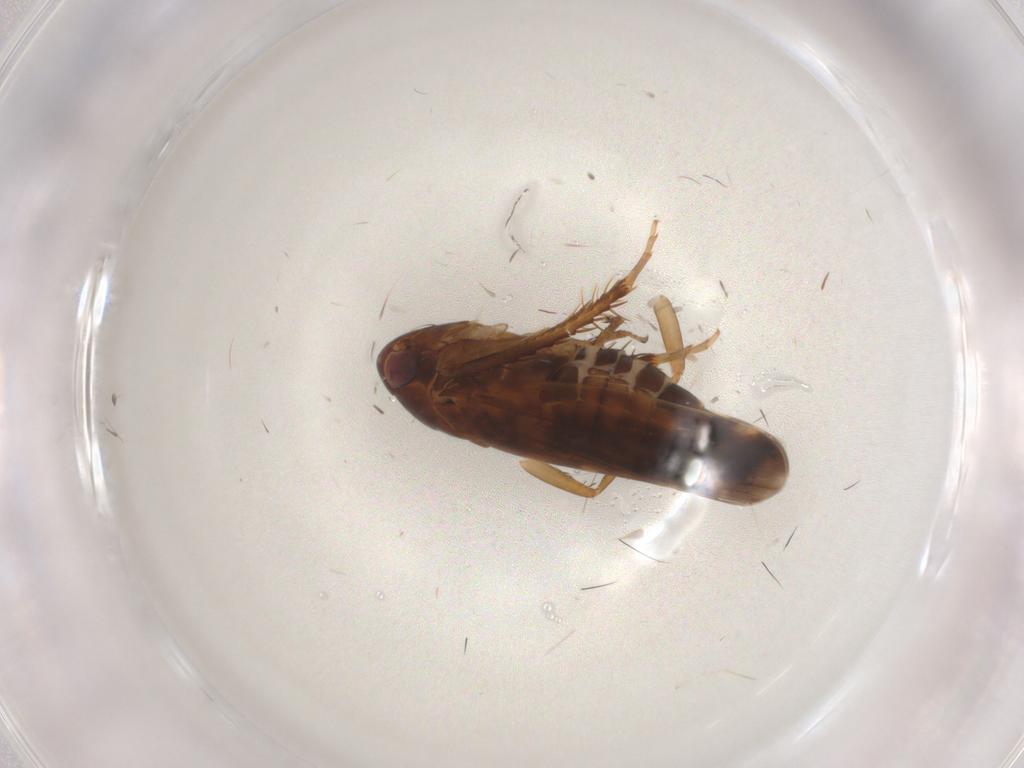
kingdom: Animalia
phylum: Arthropoda
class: Insecta
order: Hemiptera
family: Cicadellidae
